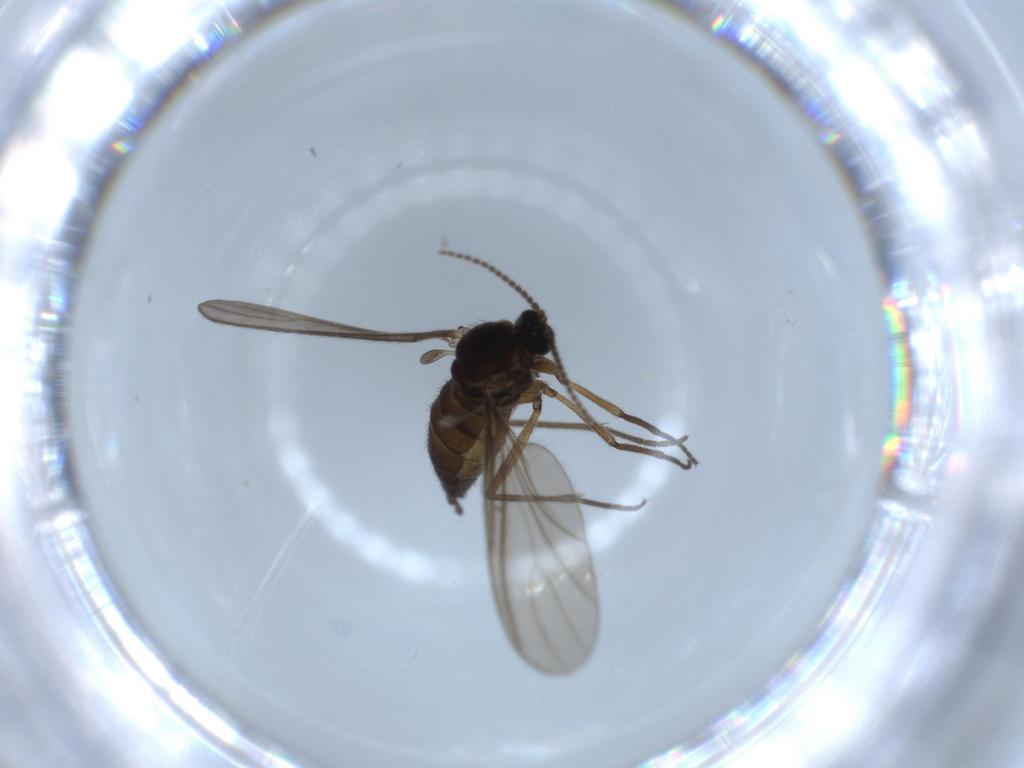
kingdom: Animalia
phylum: Arthropoda
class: Insecta
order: Diptera
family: Sciaridae
